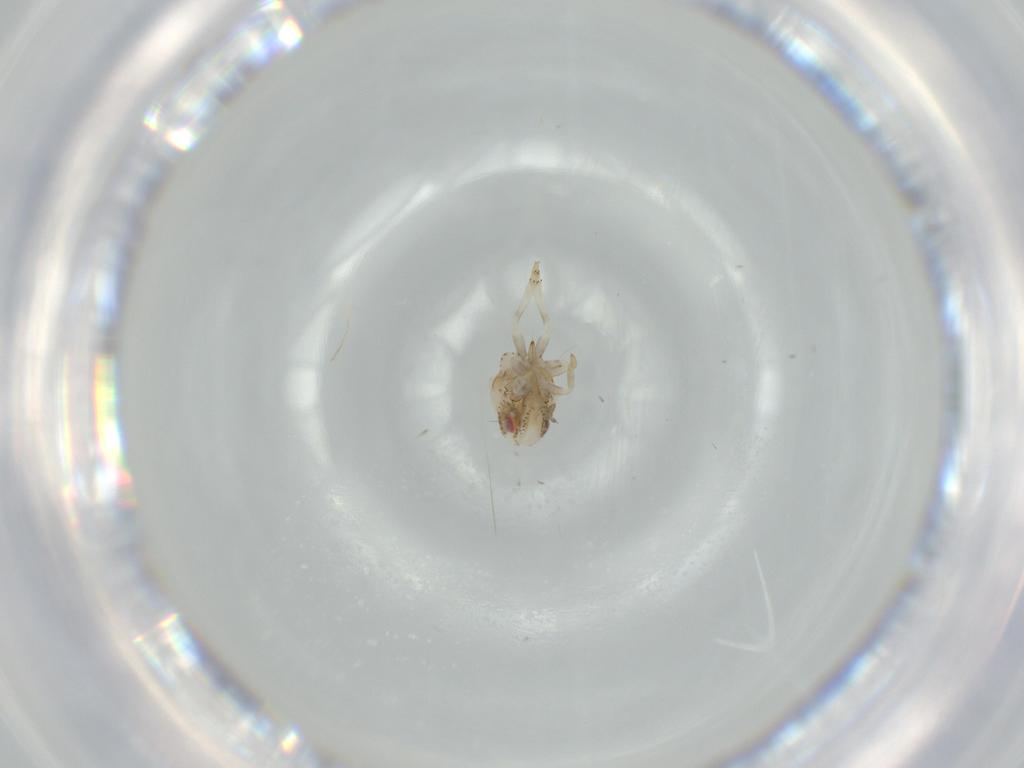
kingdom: Animalia
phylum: Arthropoda
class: Insecta
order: Hemiptera
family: Acanaloniidae
